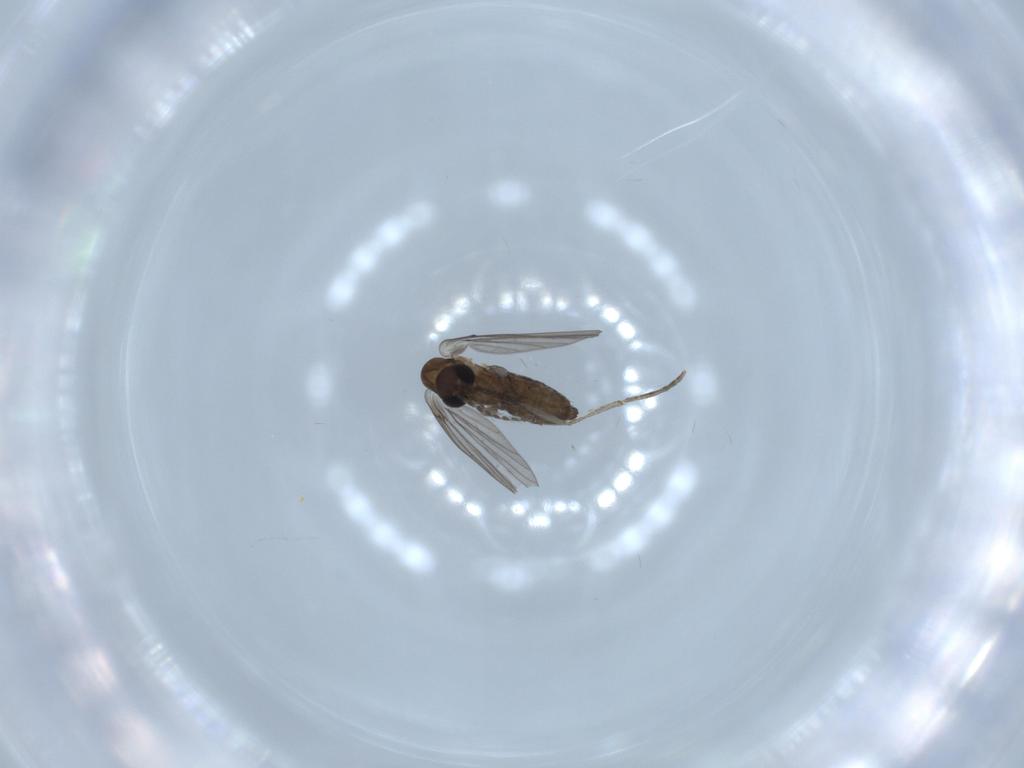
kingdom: Animalia
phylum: Arthropoda
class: Insecta
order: Diptera
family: Psychodidae
